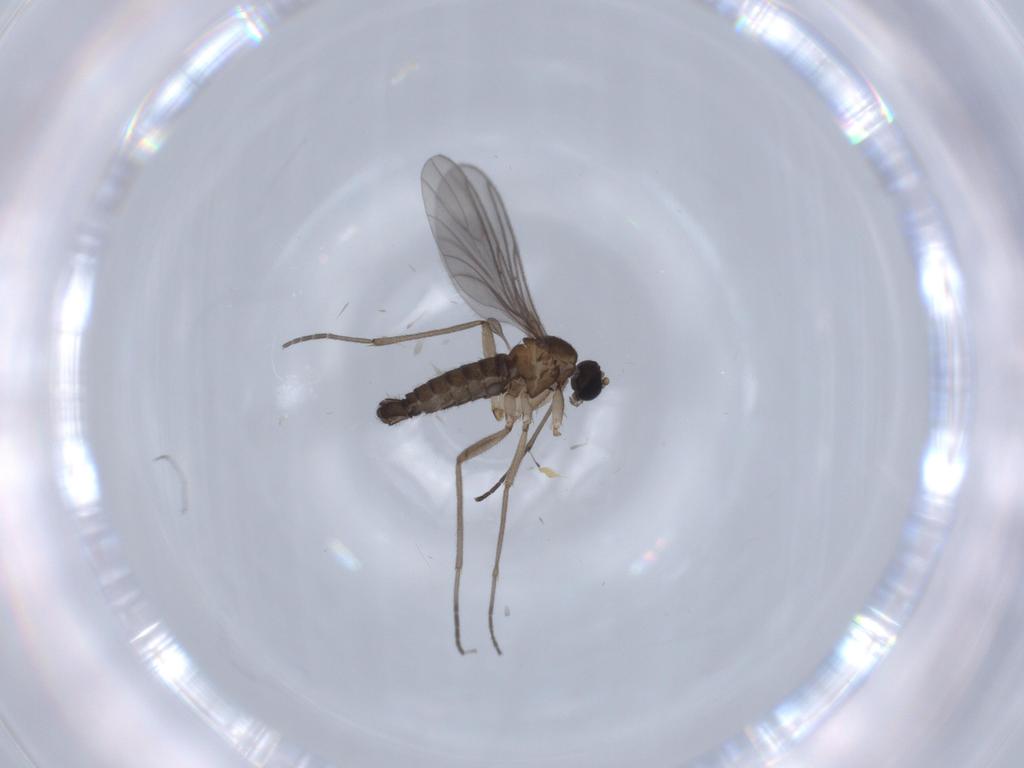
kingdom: Animalia
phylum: Arthropoda
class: Insecta
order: Diptera
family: Sciaridae
